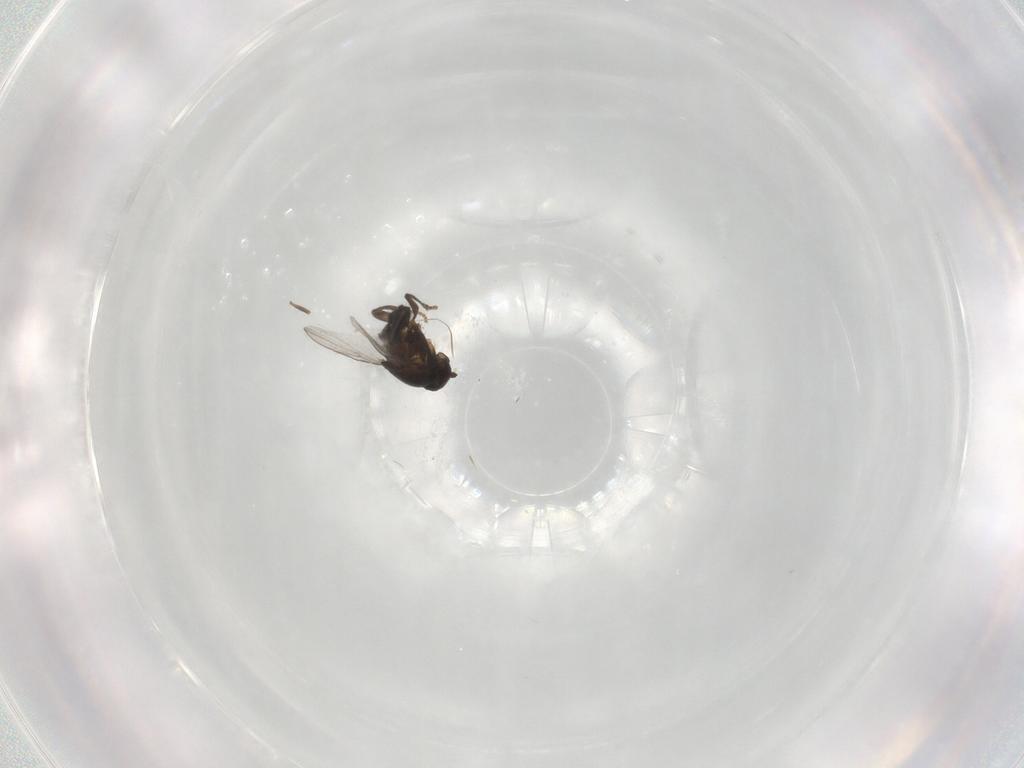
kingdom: Animalia
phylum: Arthropoda
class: Insecta
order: Diptera
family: Sphaeroceridae
